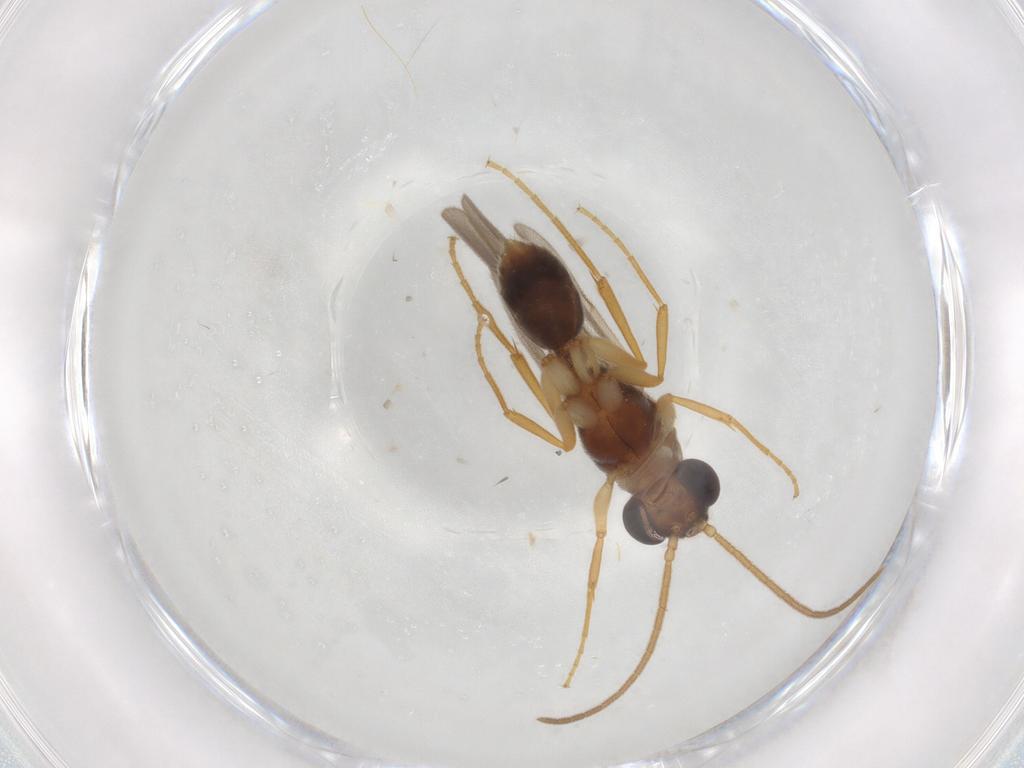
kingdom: Animalia
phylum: Arthropoda
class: Insecta
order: Hymenoptera
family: Formicidae
